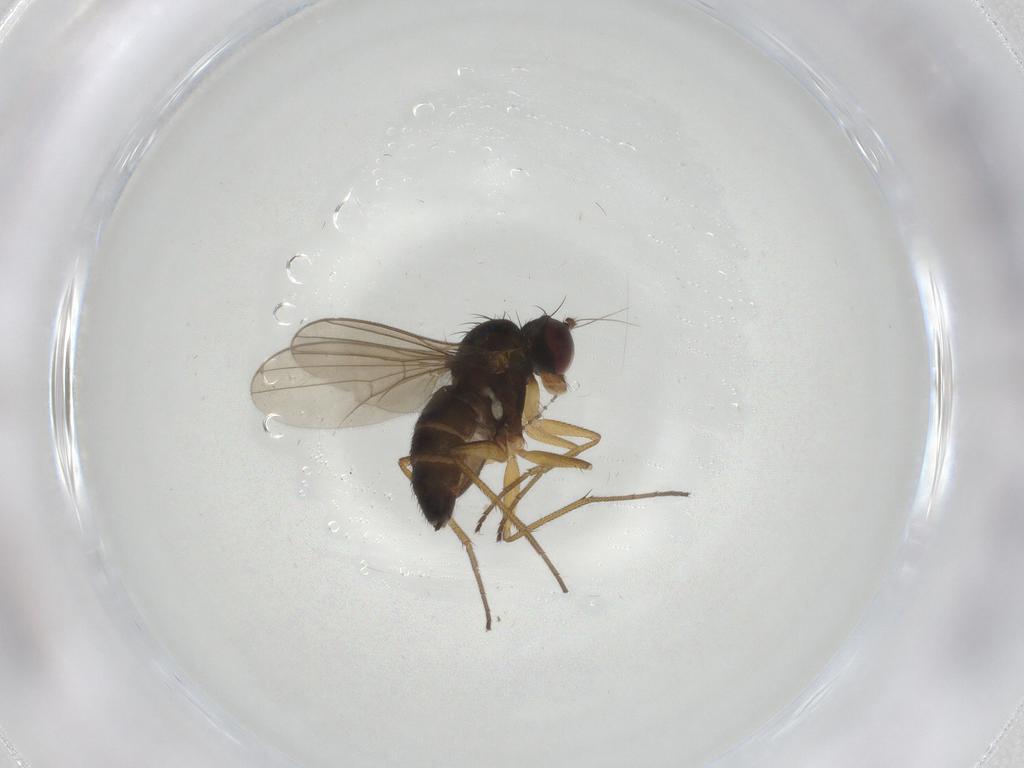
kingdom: Animalia
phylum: Arthropoda
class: Insecta
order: Diptera
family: Dolichopodidae
